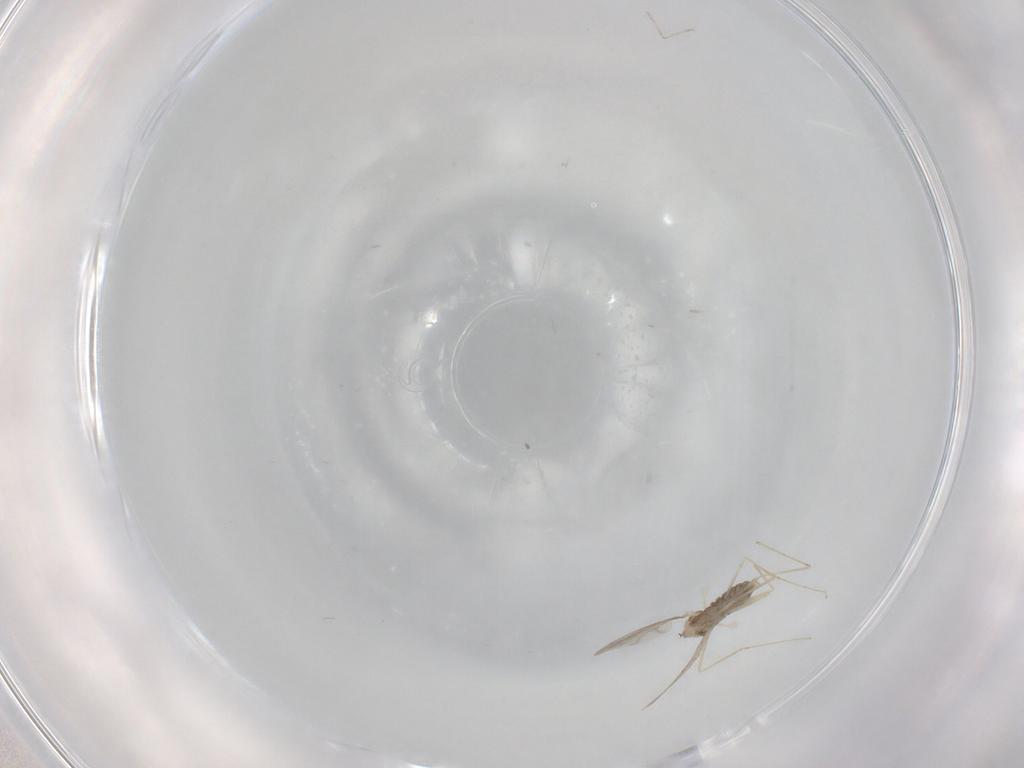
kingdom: Animalia
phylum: Arthropoda
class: Insecta
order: Diptera
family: Cecidomyiidae
